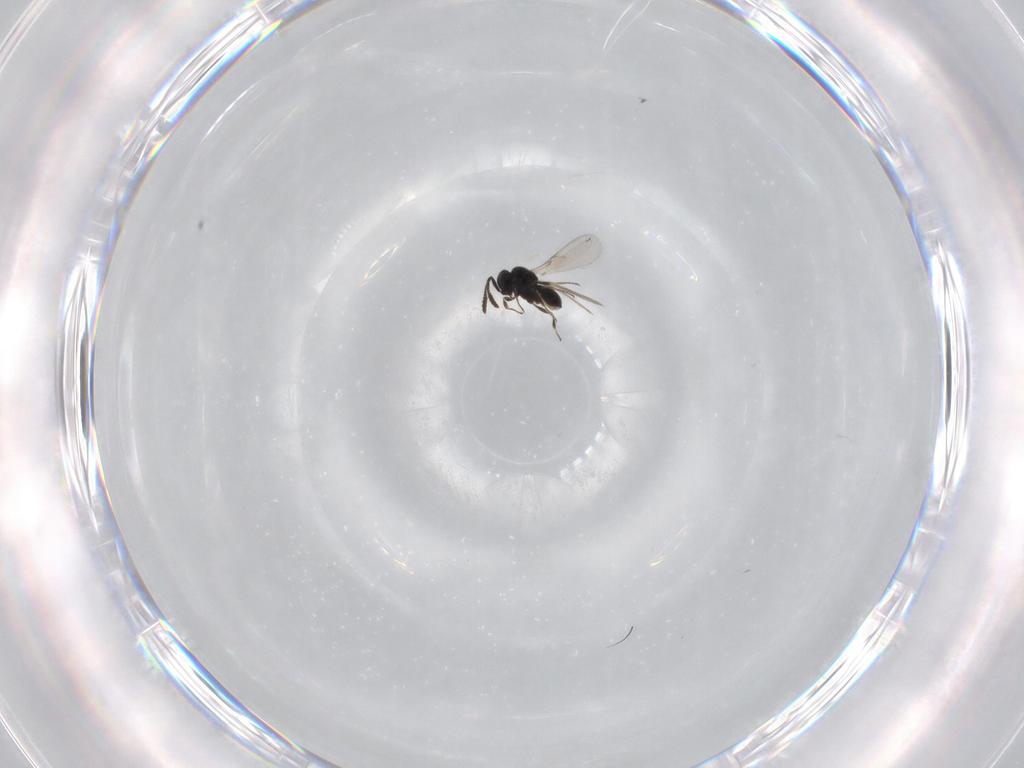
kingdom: Animalia
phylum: Arthropoda
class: Insecta
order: Hymenoptera
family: Scelionidae
